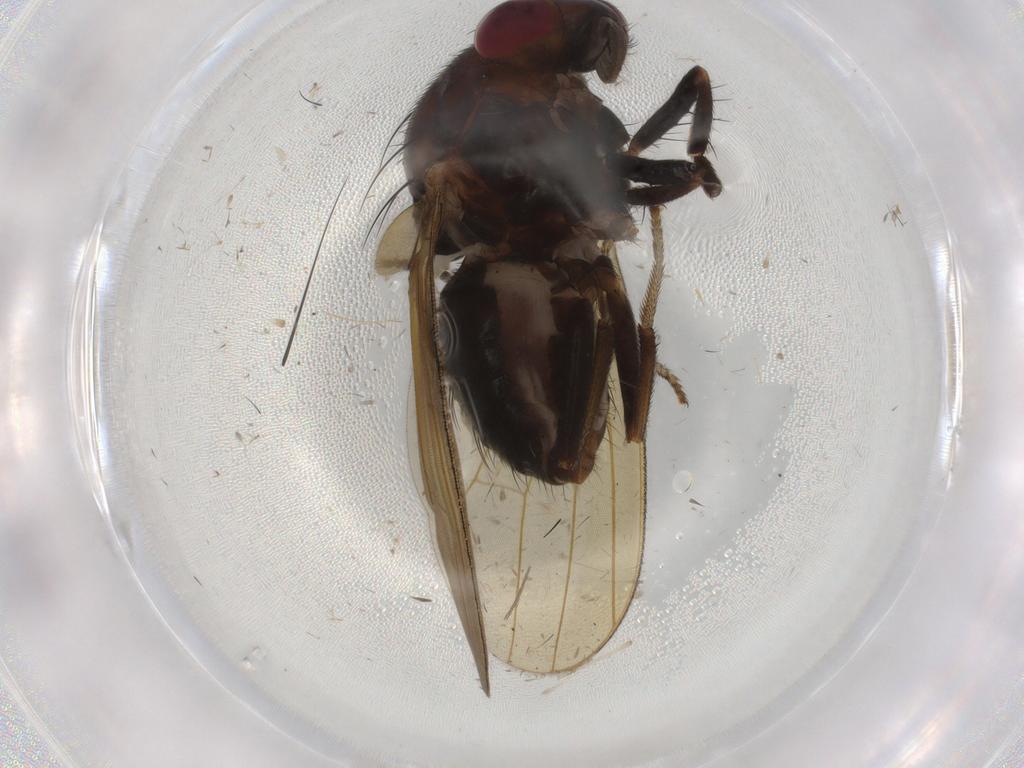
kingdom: Animalia
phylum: Arthropoda
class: Insecta
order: Diptera
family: Lauxaniidae
